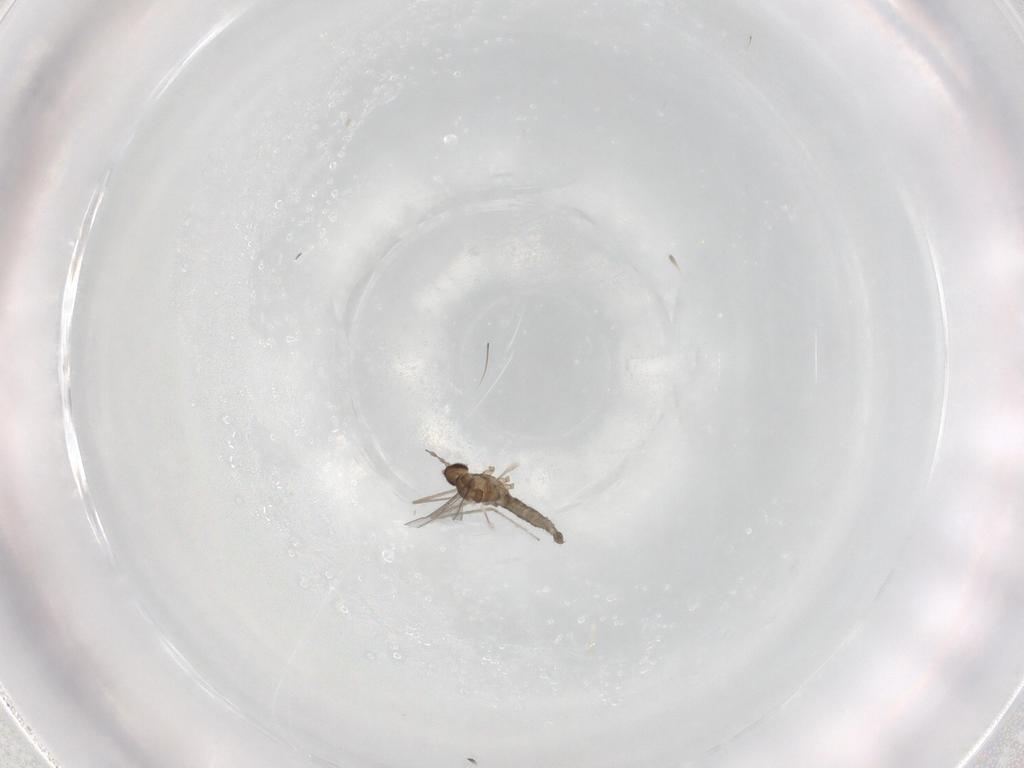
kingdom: Animalia
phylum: Arthropoda
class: Insecta
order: Diptera
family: Cecidomyiidae
